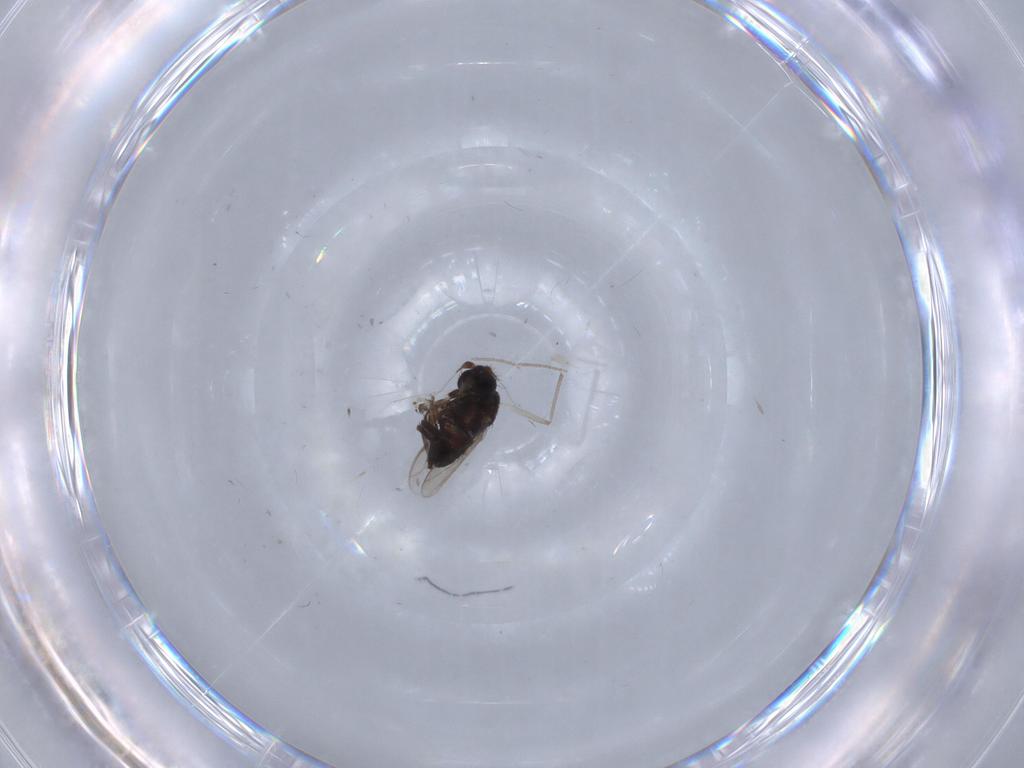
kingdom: Animalia
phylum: Arthropoda
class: Insecta
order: Diptera
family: Sphaeroceridae
